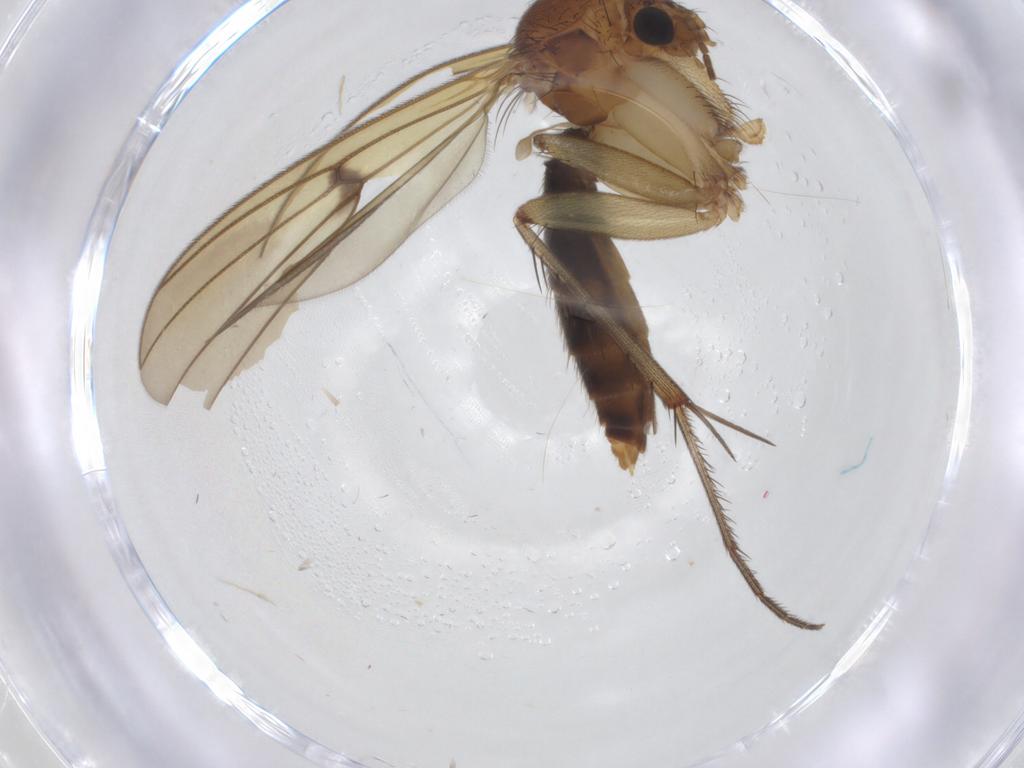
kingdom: Animalia
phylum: Arthropoda
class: Insecta
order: Diptera
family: Mycetophilidae
